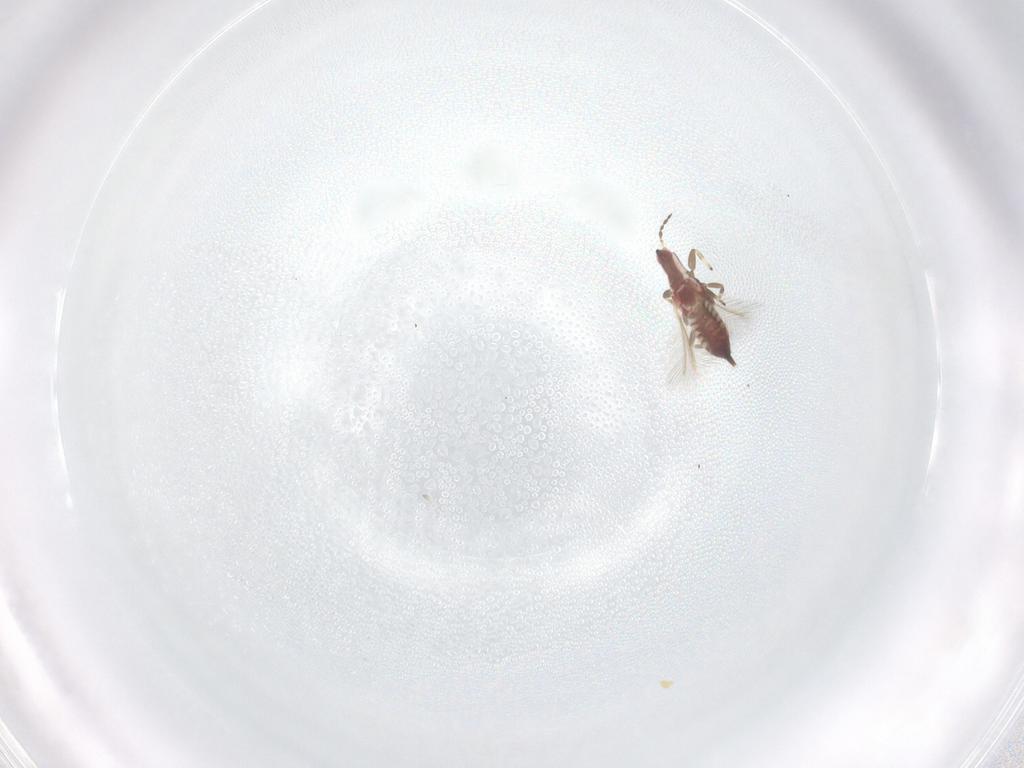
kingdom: Animalia
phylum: Arthropoda
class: Insecta
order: Thysanoptera
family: Phlaeothripidae
